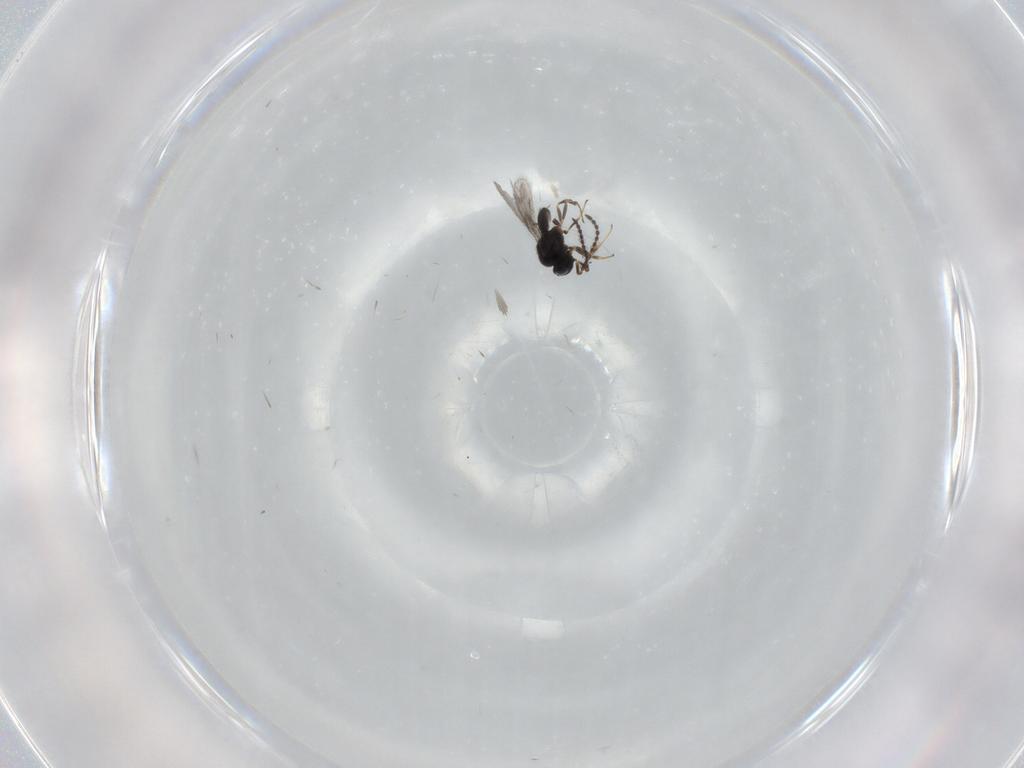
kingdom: Animalia
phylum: Arthropoda
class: Insecta
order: Hymenoptera
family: Scelionidae
